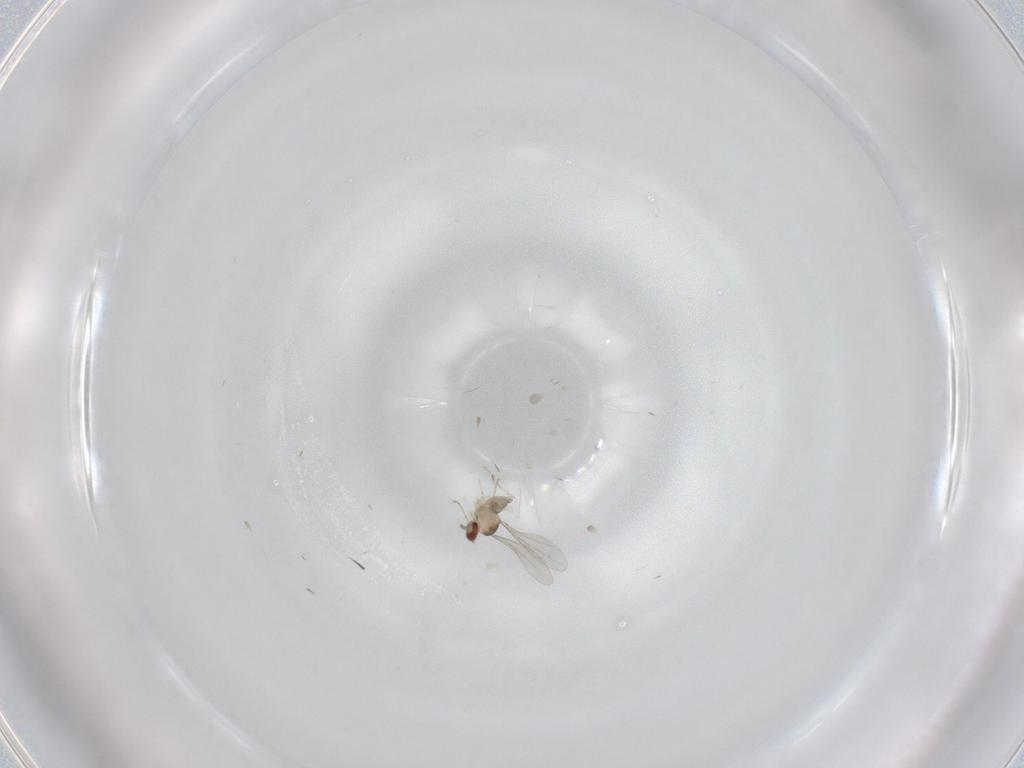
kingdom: Animalia
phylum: Arthropoda
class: Insecta
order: Diptera
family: Cecidomyiidae
